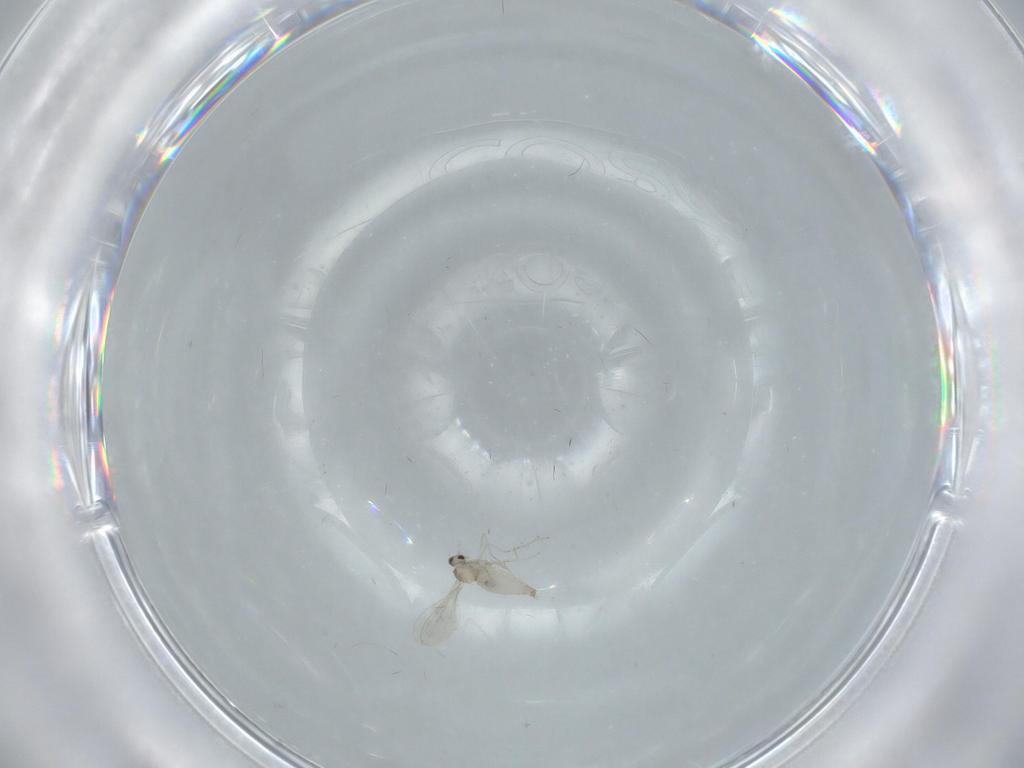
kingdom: Animalia
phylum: Arthropoda
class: Insecta
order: Diptera
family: Cecidomyiidae
